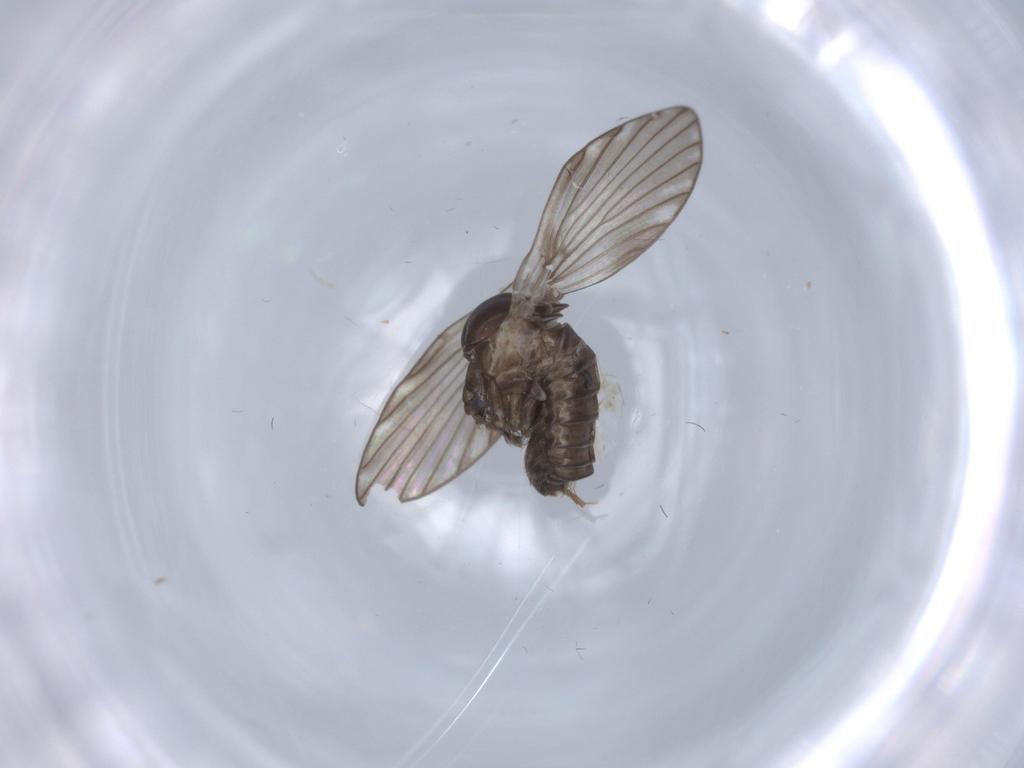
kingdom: Animalia
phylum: Arthropoda
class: Insecta
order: Diptera
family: Psychodidae
